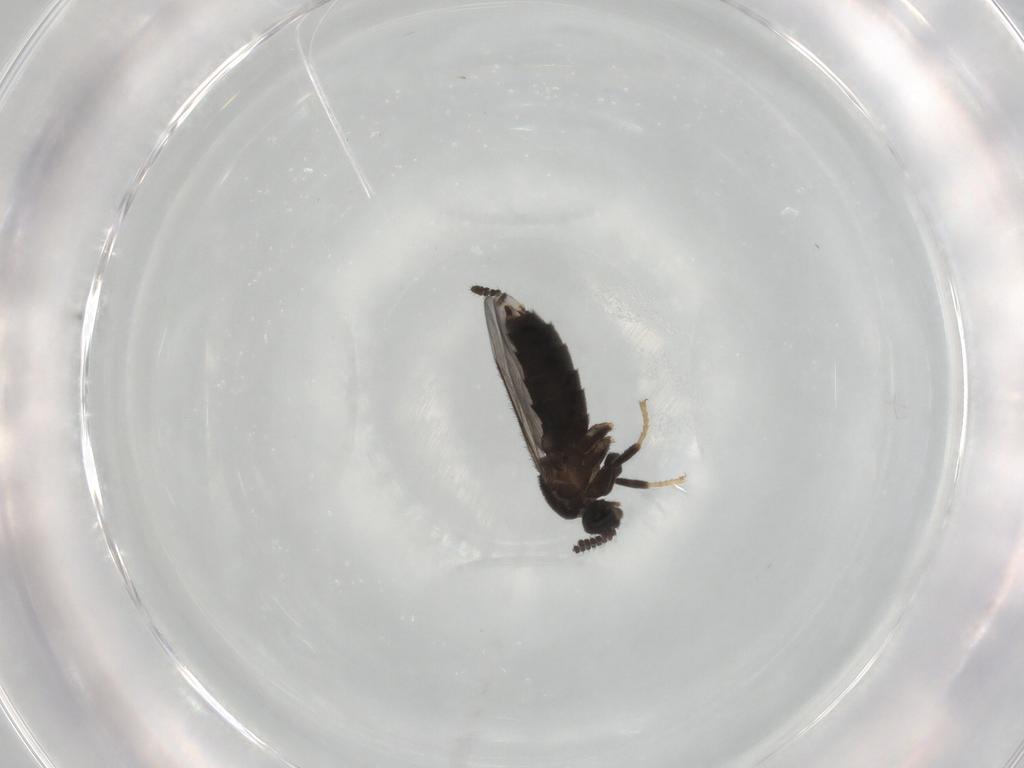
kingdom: Animalia
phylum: Arthropoda
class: Insecta
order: Diptera
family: Scatopsidae
